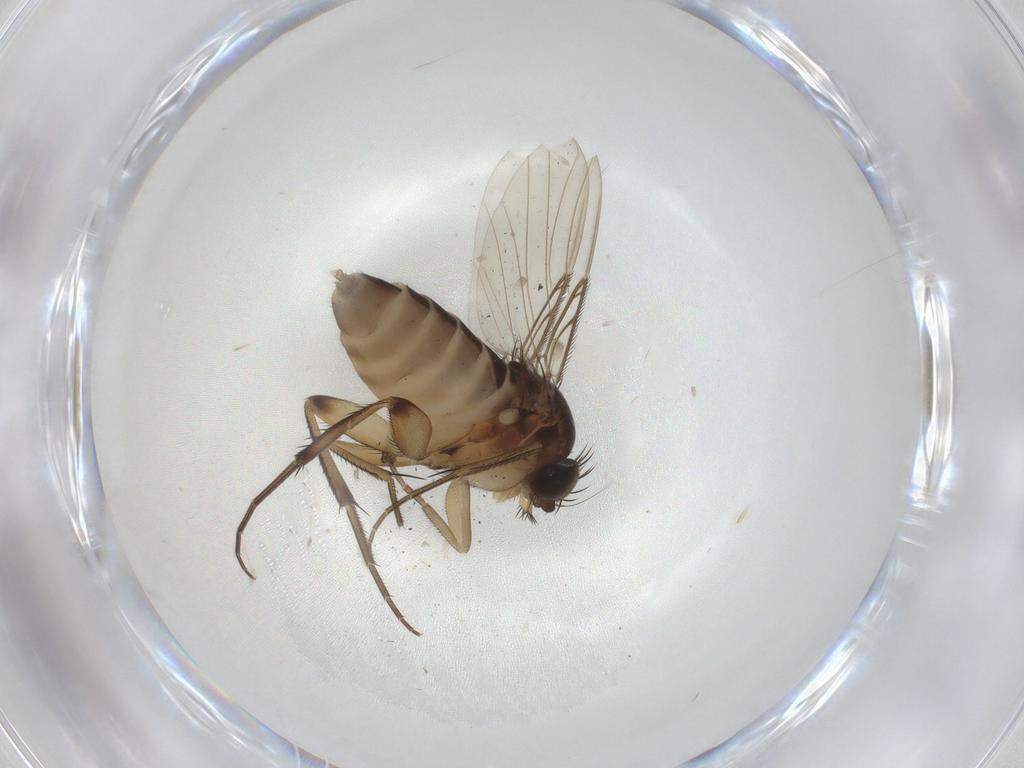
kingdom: Animalia
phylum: Arthropoda
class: Insecta
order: Diptera
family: Phoridae
